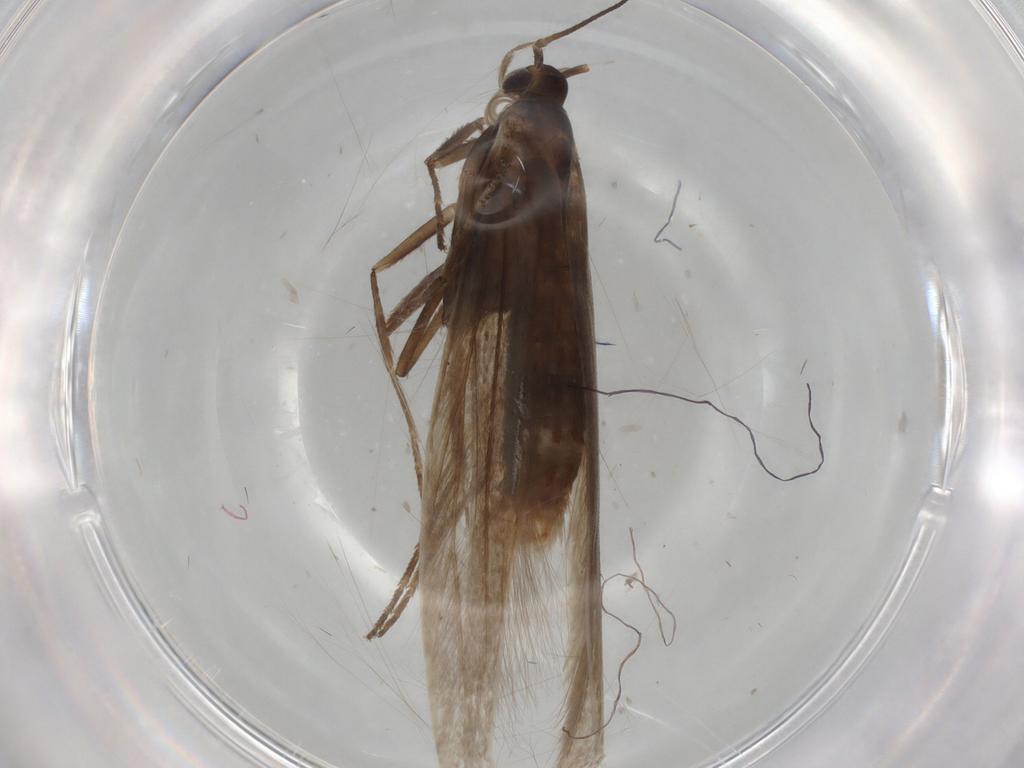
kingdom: Animalia
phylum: Arthropoda
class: Insecta
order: Lepidoptera
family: Coleophoridae
